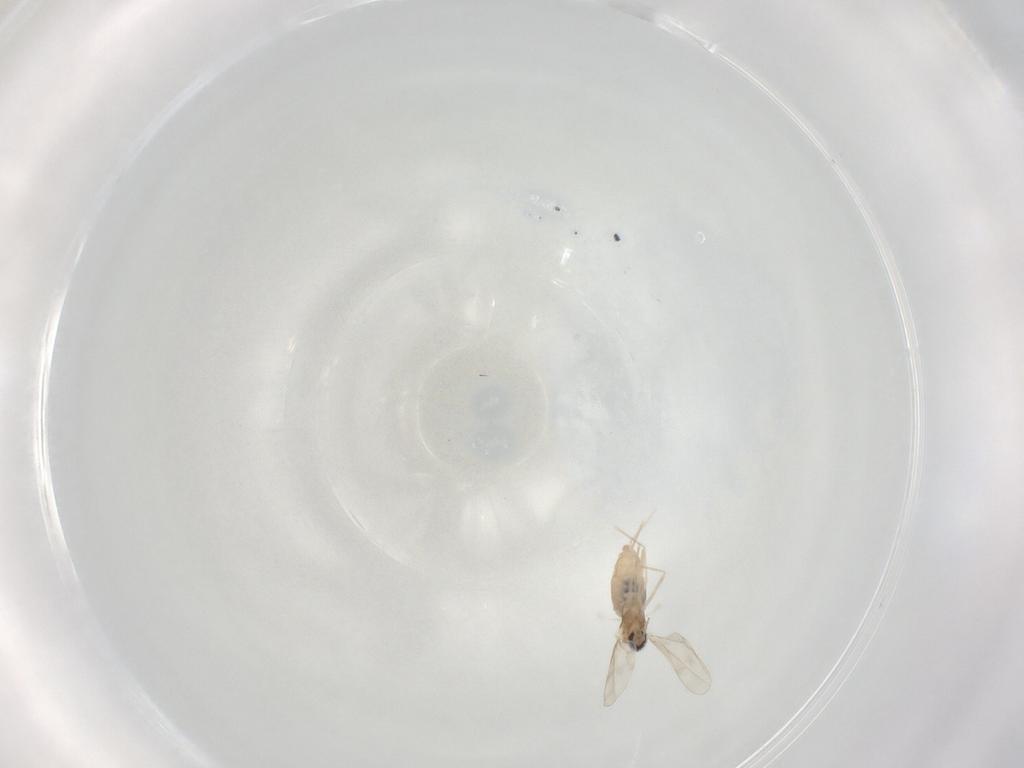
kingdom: Animalia
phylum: Arthropoda
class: Insecta
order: Diptera
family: Cecidomyiidae
